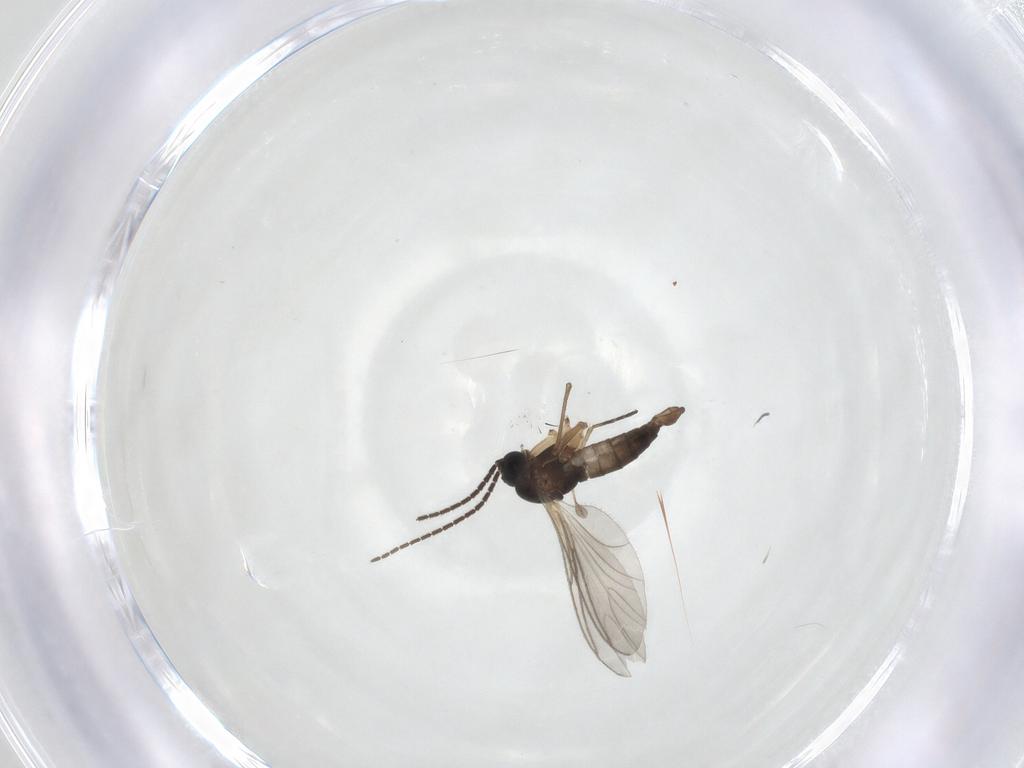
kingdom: Animalia
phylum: Arthropoda
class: Insecta
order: Diptera
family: Sciaridae
